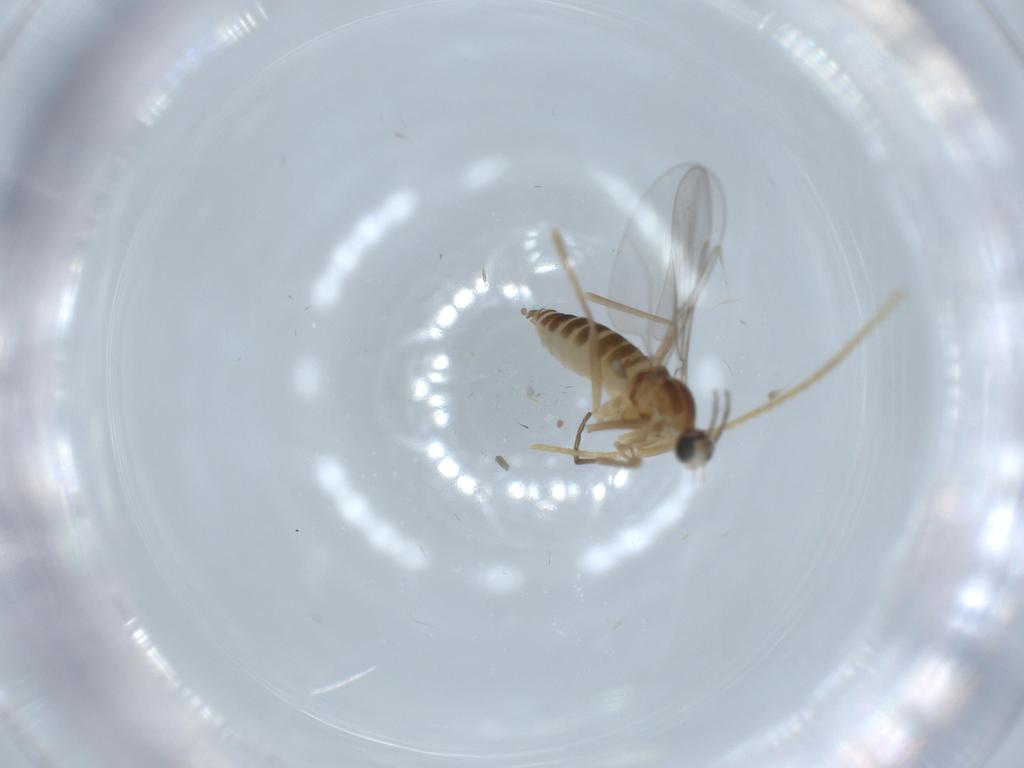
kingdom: Animalia
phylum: Arthropoda
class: Insecta
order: Diptera
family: Cecidomyiidae
